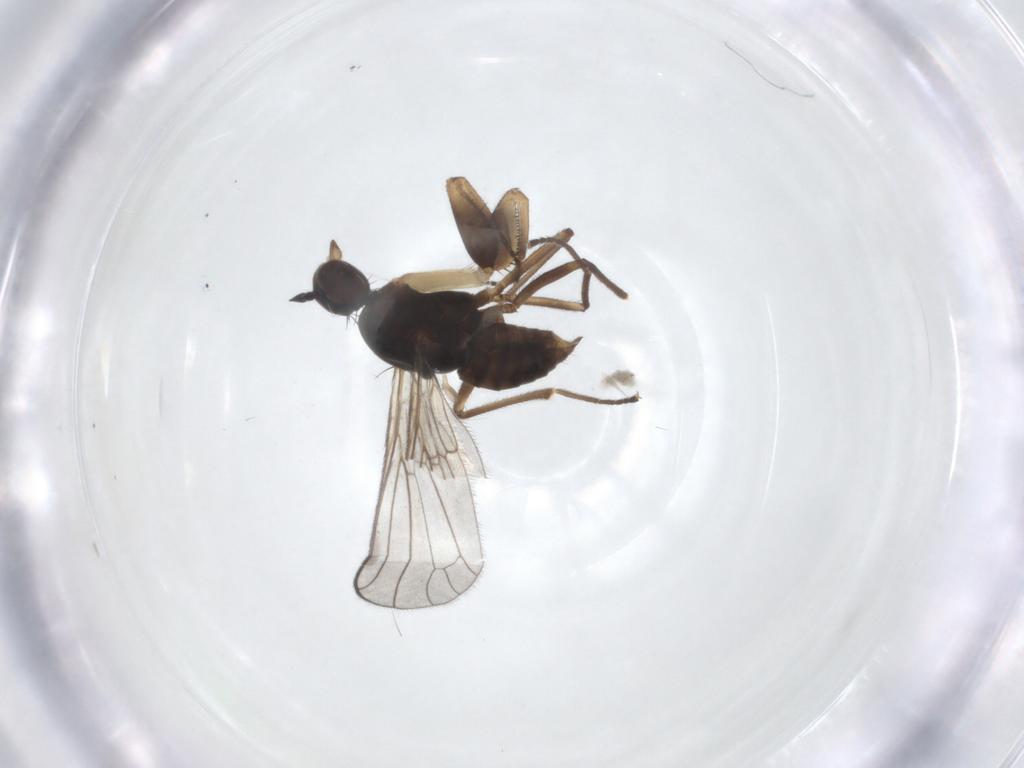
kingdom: Animalia
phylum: Arthropoda
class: Insecta
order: Diptera
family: Empididae
